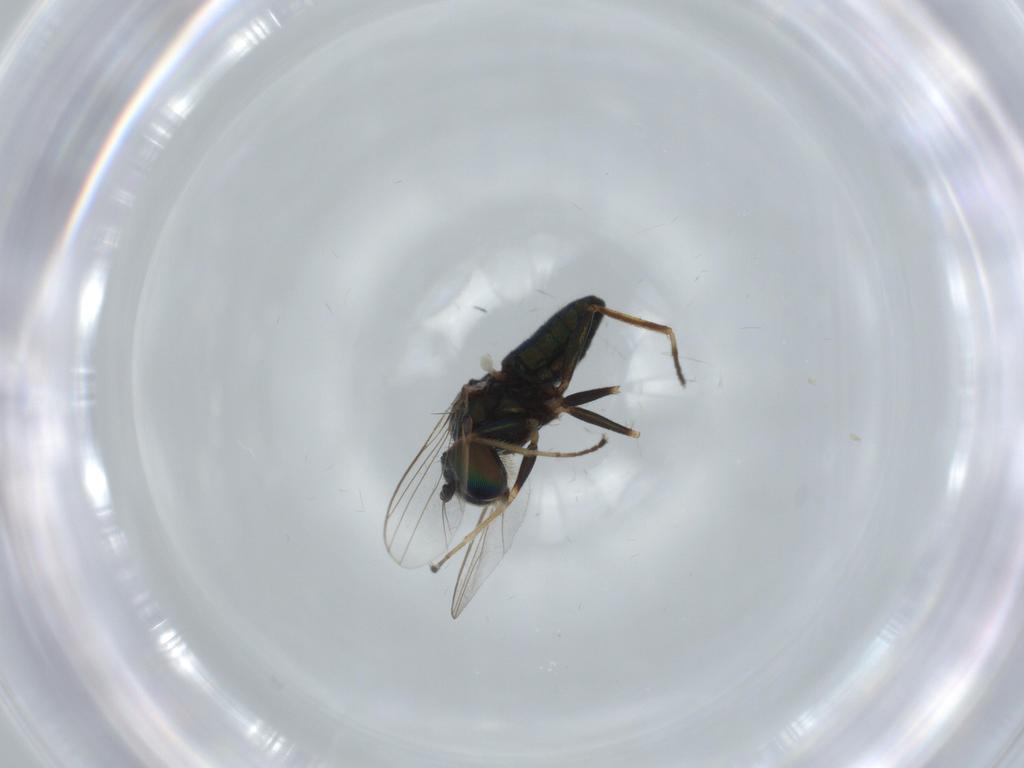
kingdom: Animalia
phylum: Arthropoda
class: Insecta
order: Diptera
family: Dolichopodidae
